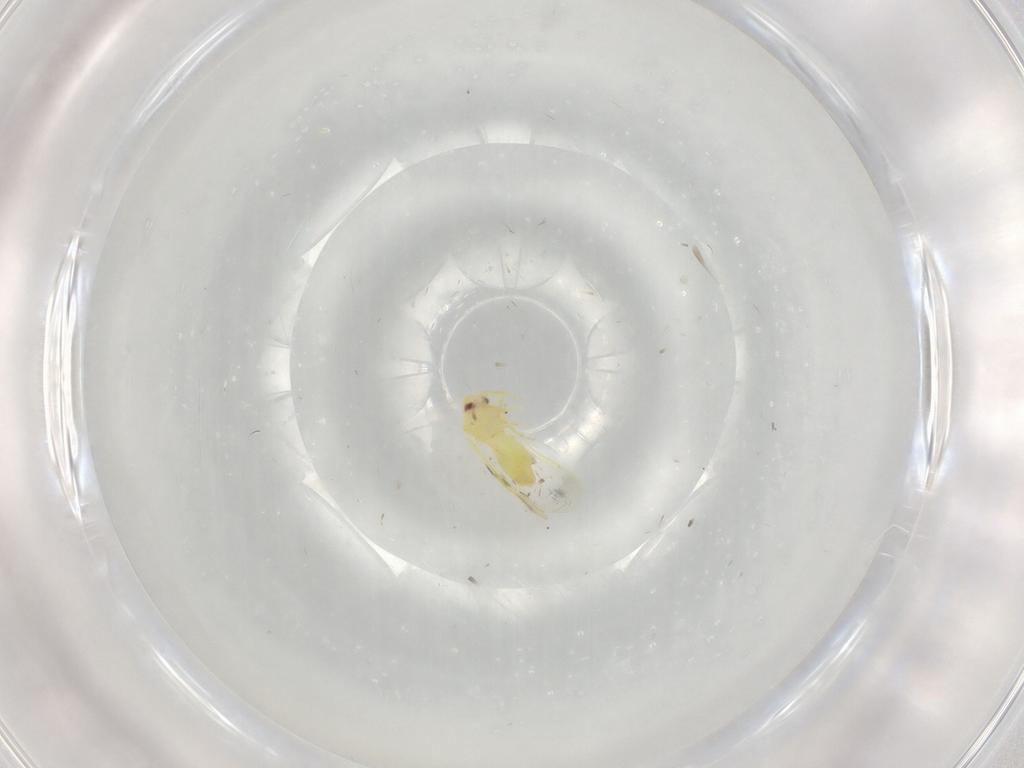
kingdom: Animalia
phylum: Arthropoda
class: Insecta
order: Hemiptera
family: Aleyrodidae
